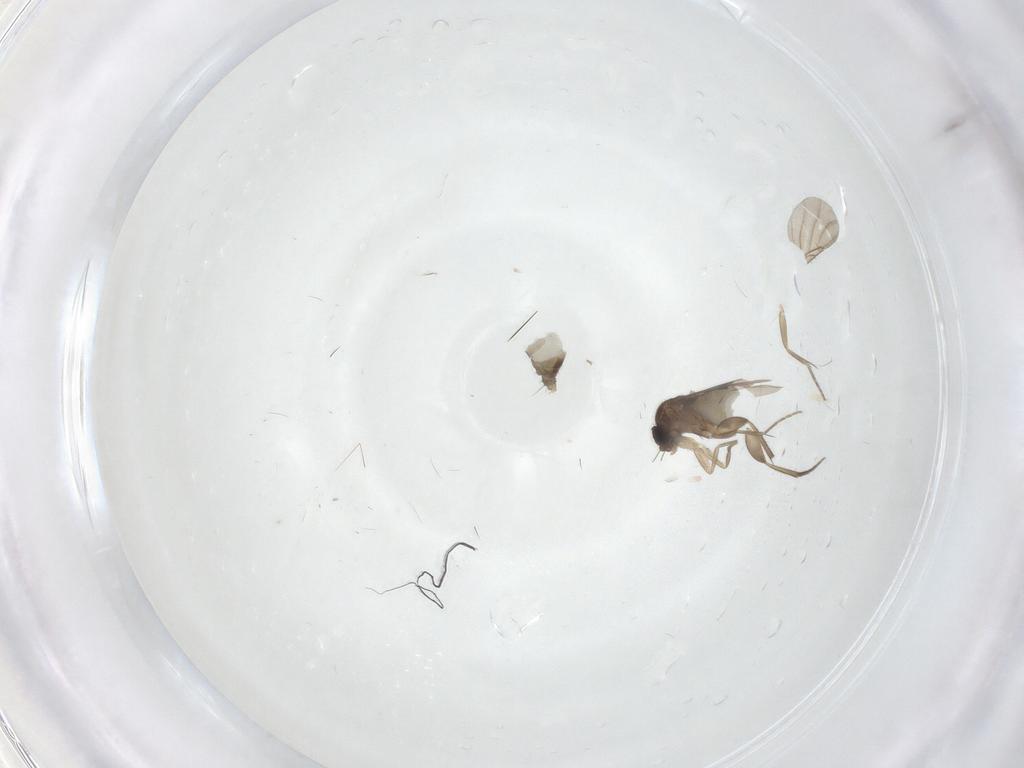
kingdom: Animalia
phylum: Arthropoda
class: Insecta
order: Diptera
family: Phoridae
